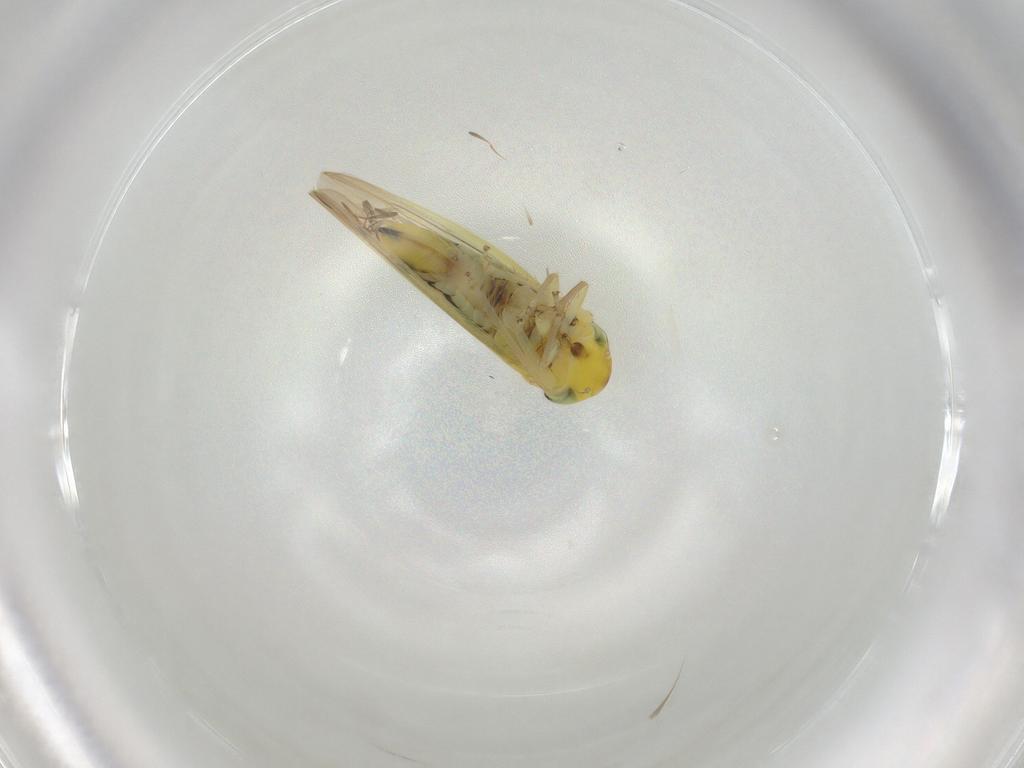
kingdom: Animalia
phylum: Arthropoda
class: Insecta
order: Hemiptera
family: Cicadellidae
